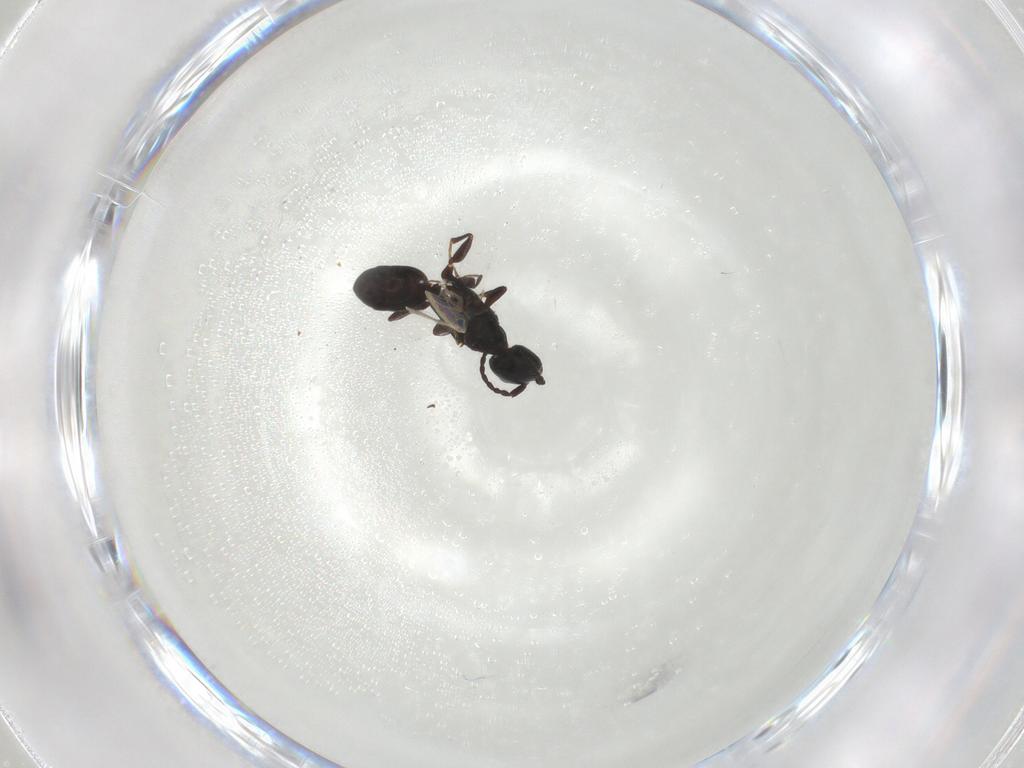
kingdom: Animalia
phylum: Arthropoda
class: Insecta
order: Hymenoptera
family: Bethylidae
